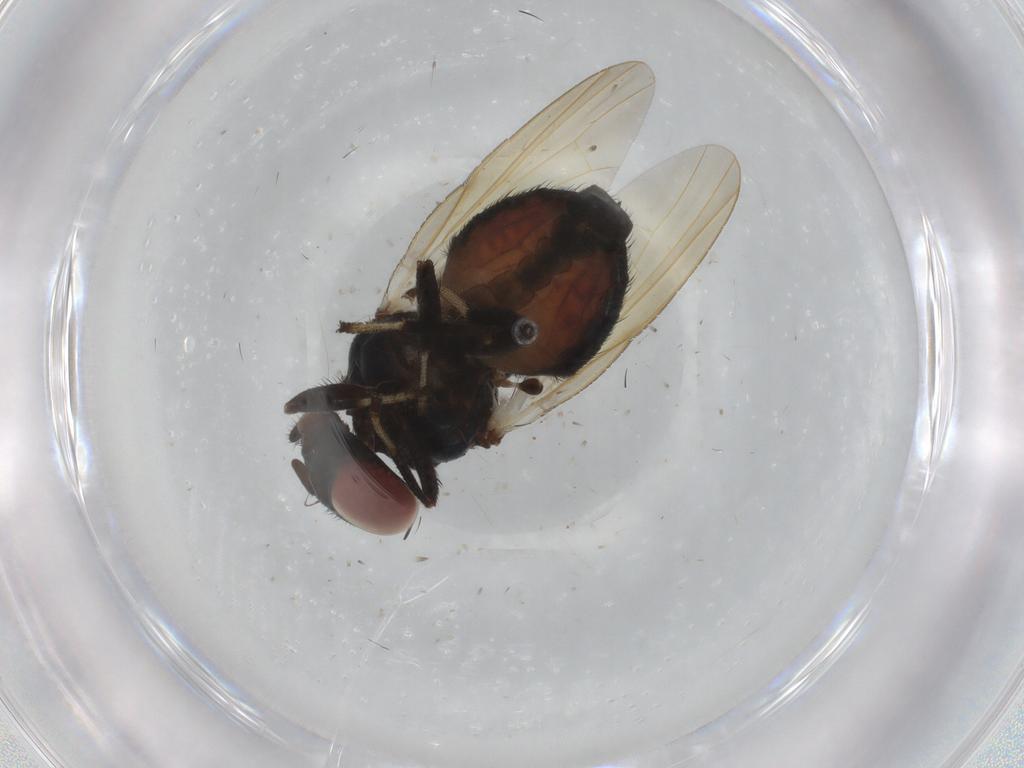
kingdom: Animalia
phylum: Arthropoda
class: Insecta
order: Diptera
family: Lonchaeidae
